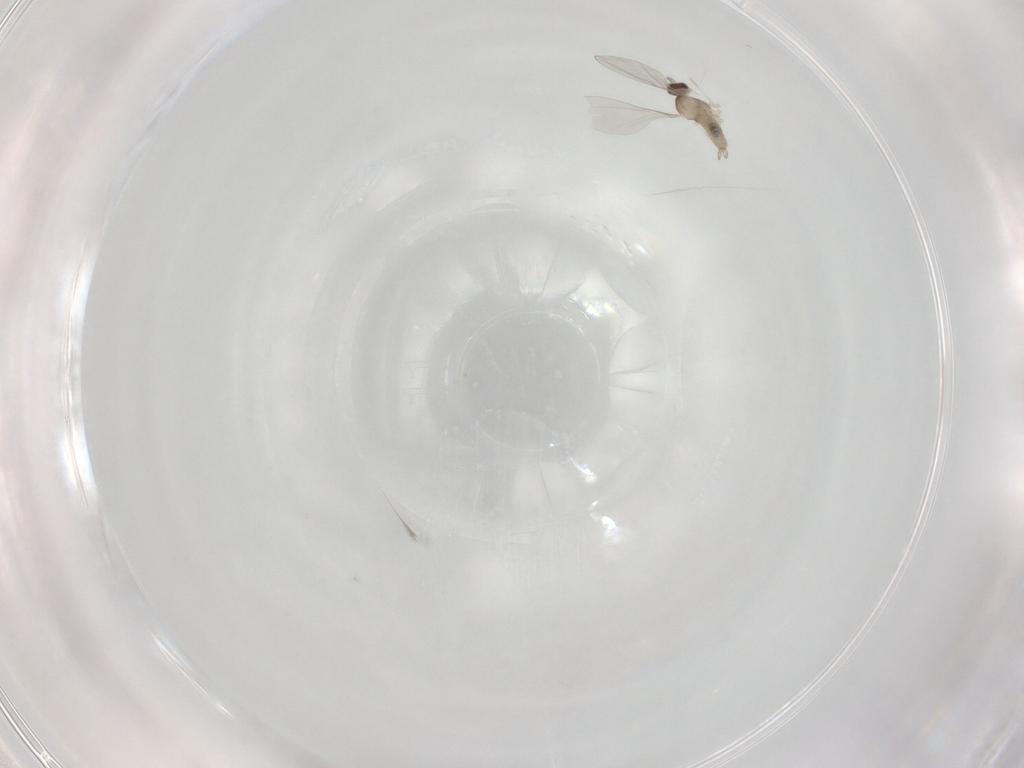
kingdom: Animalia
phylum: Arthropoda
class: Insecta
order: Diptera
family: Cecidomyiidae
